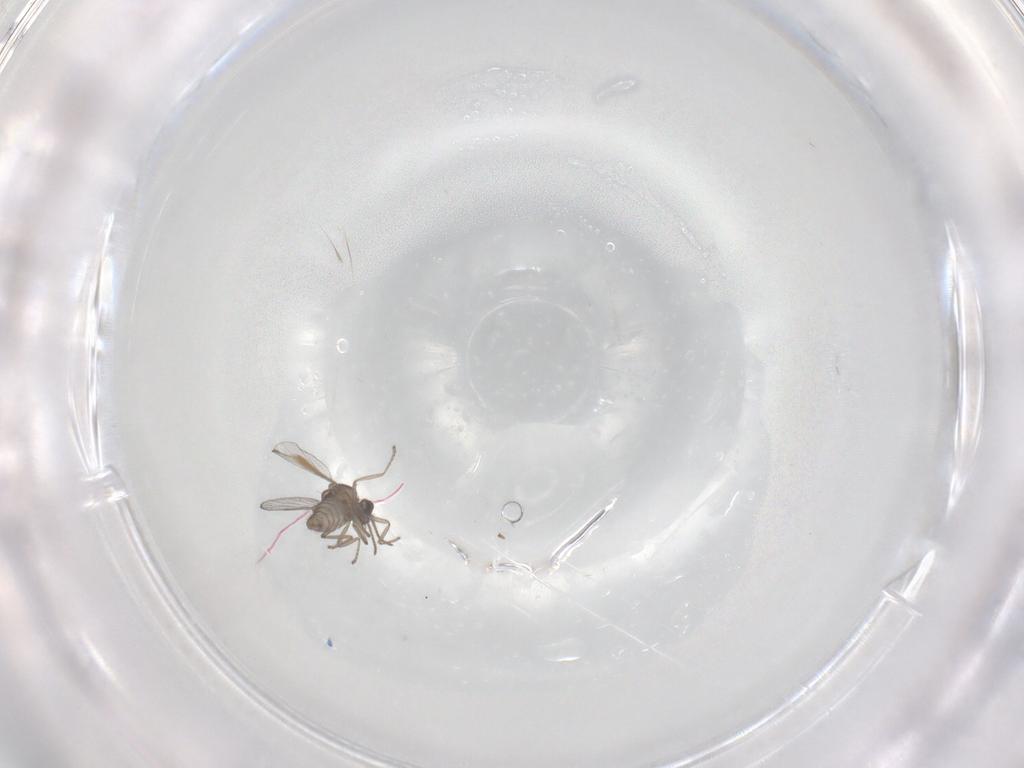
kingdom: Animalia
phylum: Arthropoda
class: Insecta
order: Diptera
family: Ceratopogonidae
